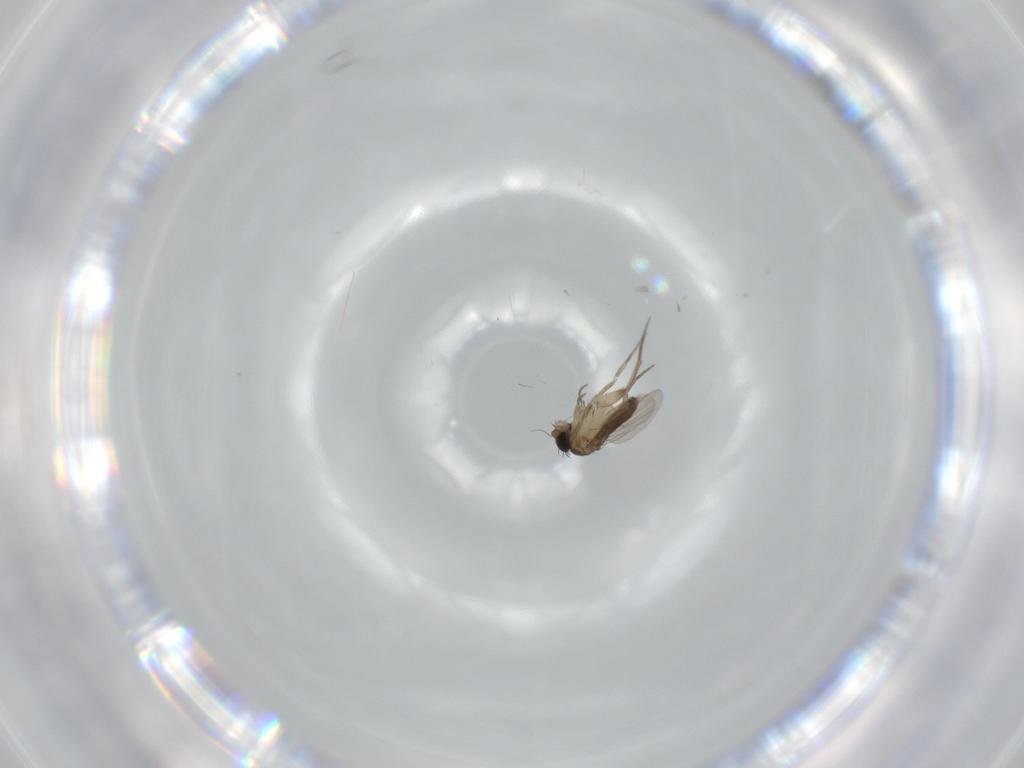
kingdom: Animalia
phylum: Arthropoda
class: Insecta
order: Diptera
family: Phoridae
